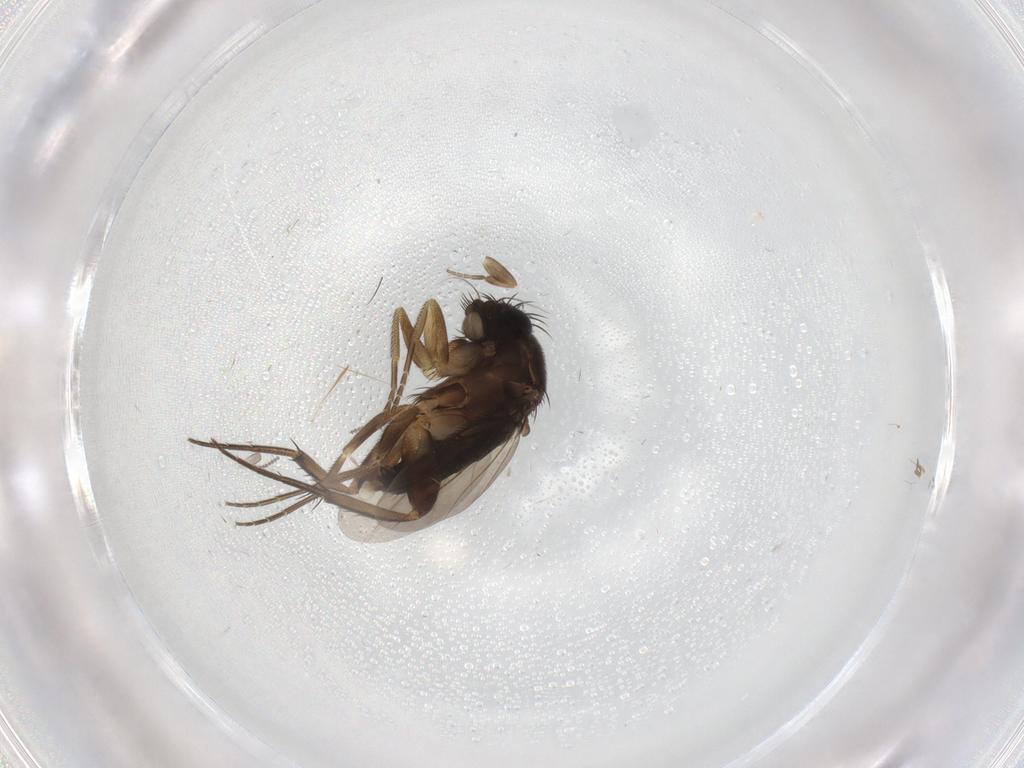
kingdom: Animalia
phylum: Arthropoda
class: Insecta
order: Diptera
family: Phoridae
